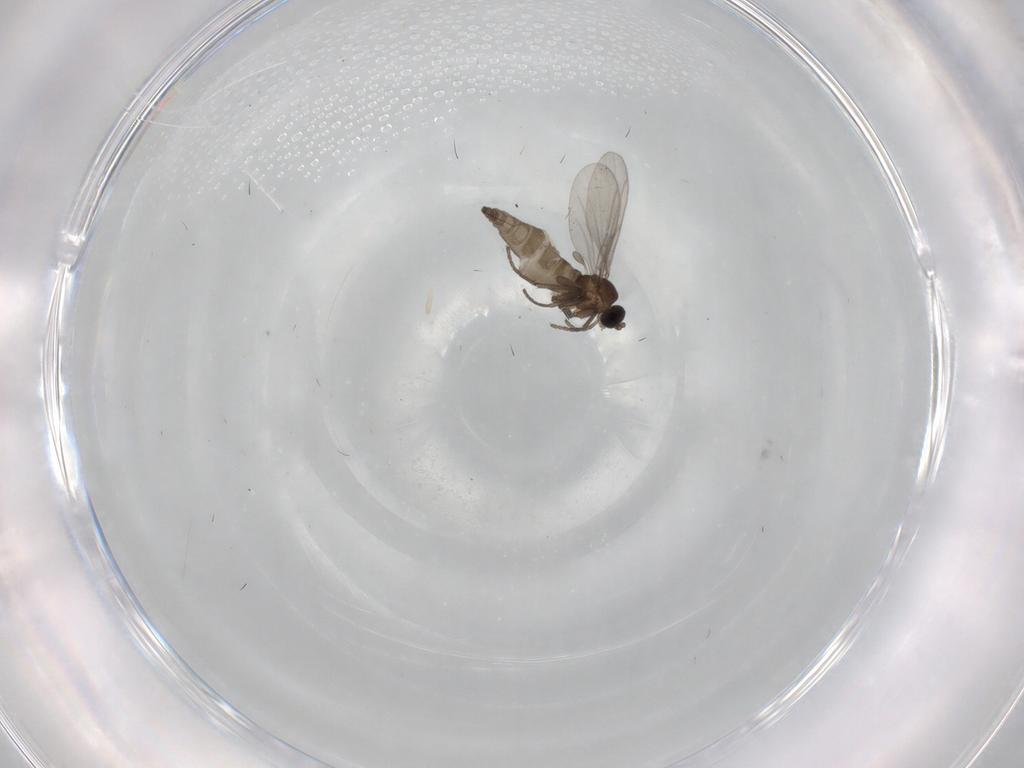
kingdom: Animalia
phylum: Arthropoda
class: Insecta
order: Diptera
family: Sciaridae
